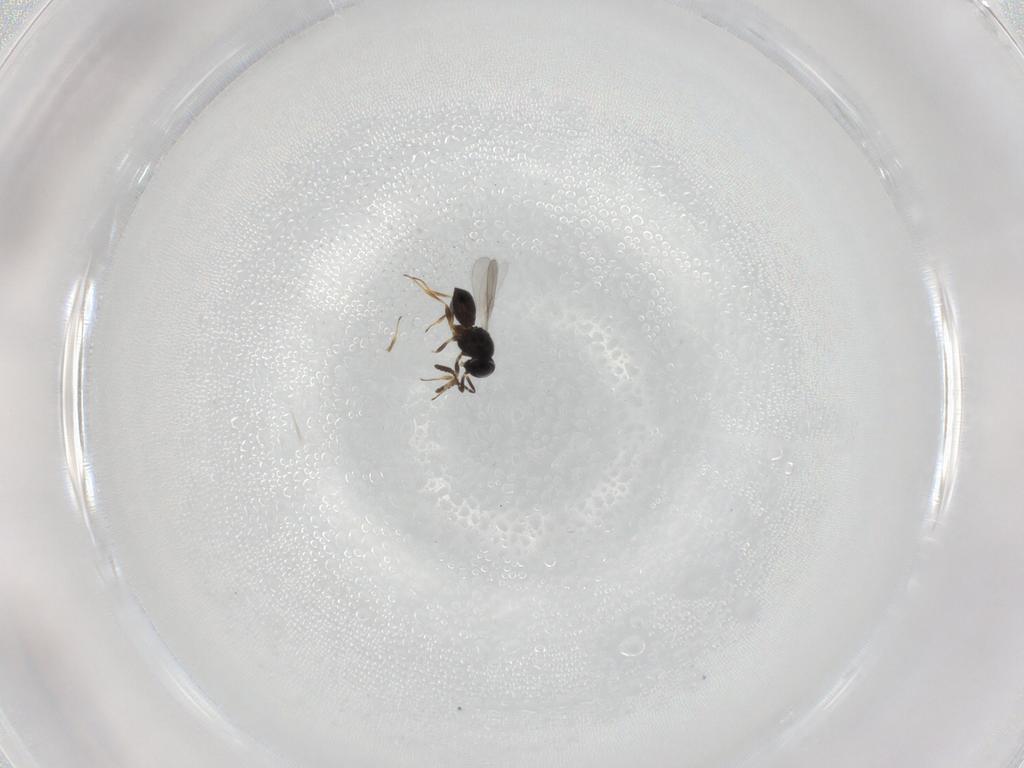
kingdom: Animalia
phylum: Arthropoda
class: Insecta
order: Hymenoptera
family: Scelionidae
